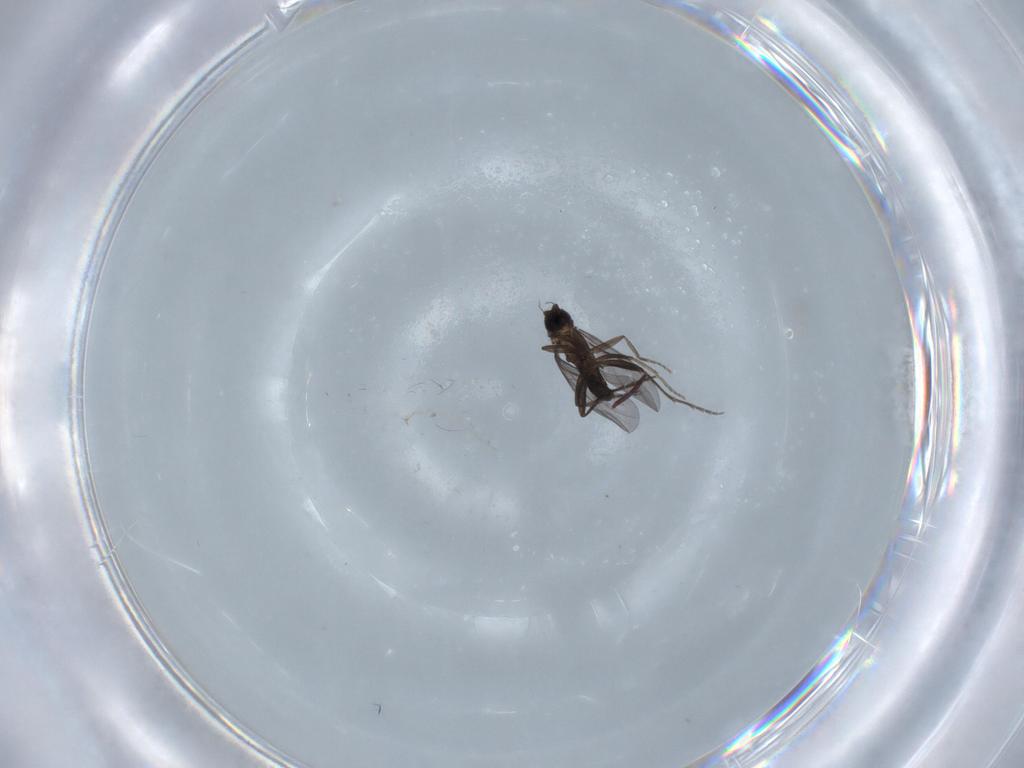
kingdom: Animalia
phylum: Arthropoda
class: Insecta
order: Diptera
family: Ceratopogonidae
